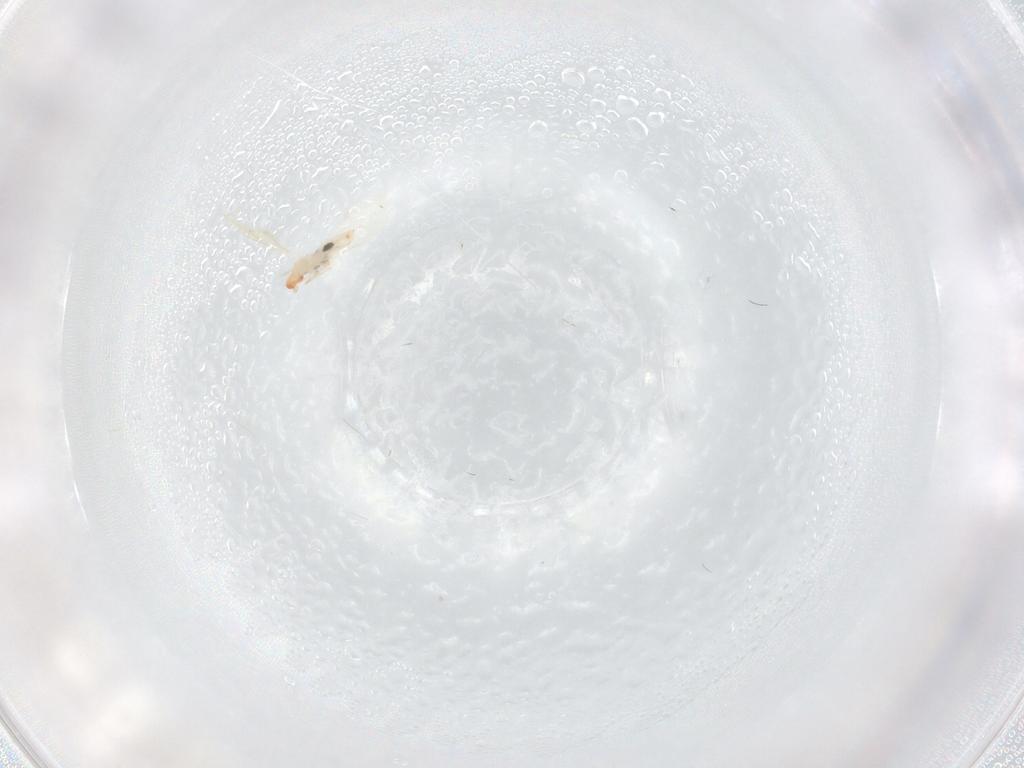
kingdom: Animalia
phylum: Arthropoda
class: Insecta
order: Diptera
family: Cecidomyiidae
